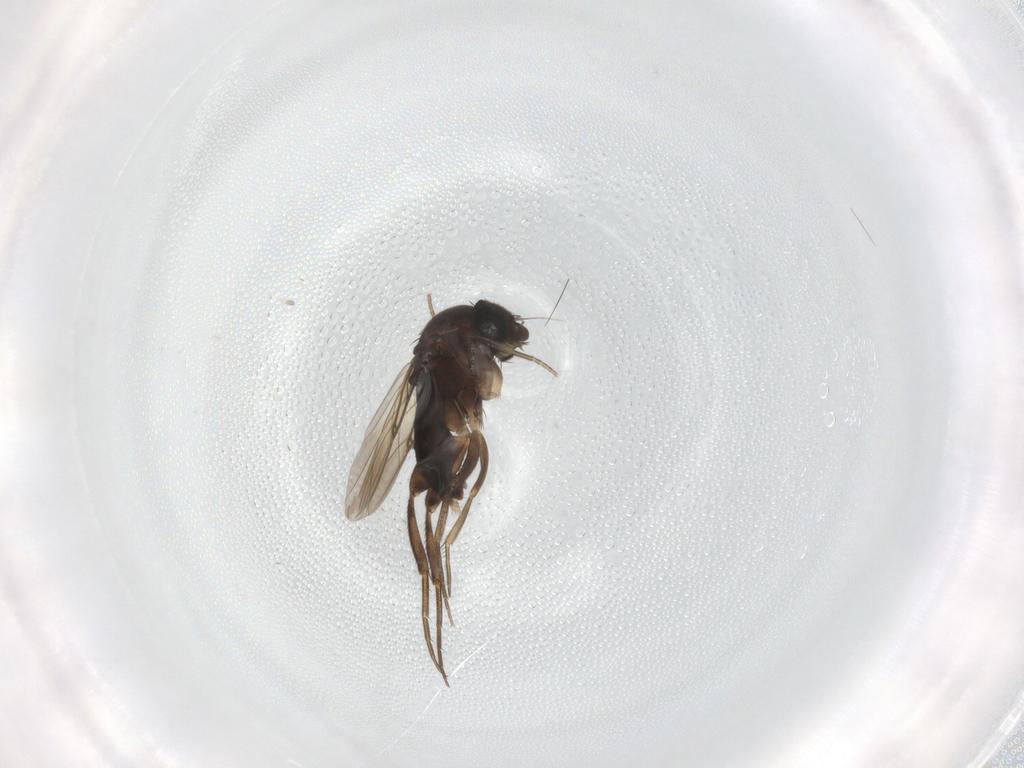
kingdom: Animalia
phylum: Arthropoda
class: Insecta
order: Diptera
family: Phoridae
